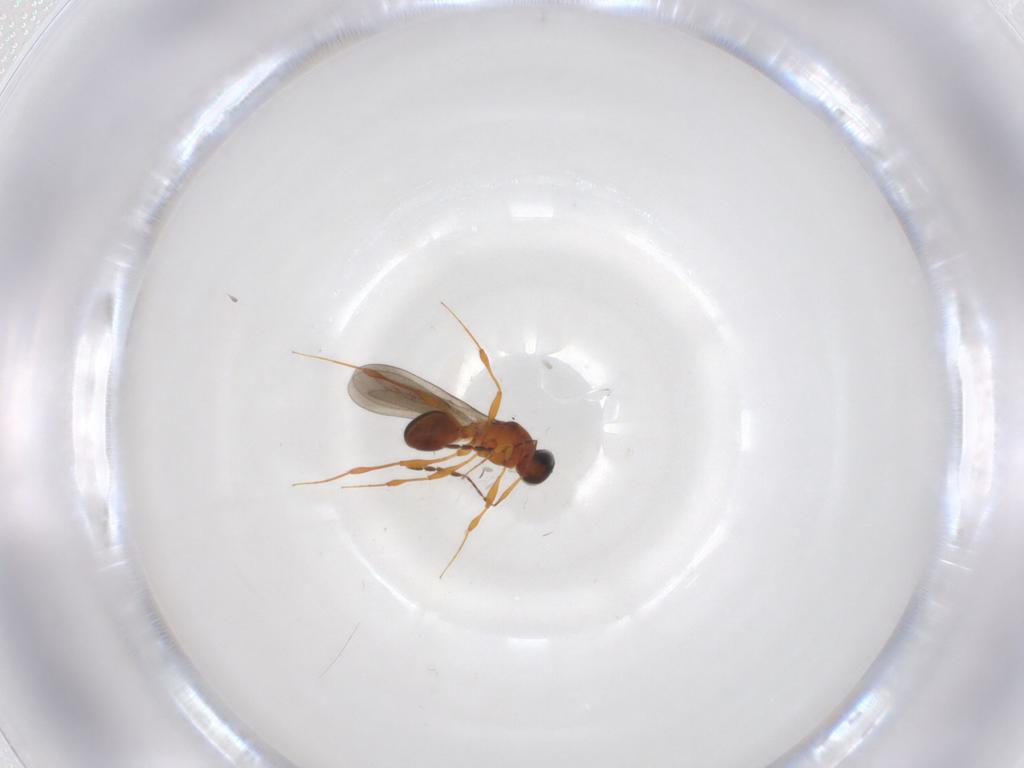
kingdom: Animalia
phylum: Arthropoda
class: Insecta
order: Hymenoptera
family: Platygastridae
